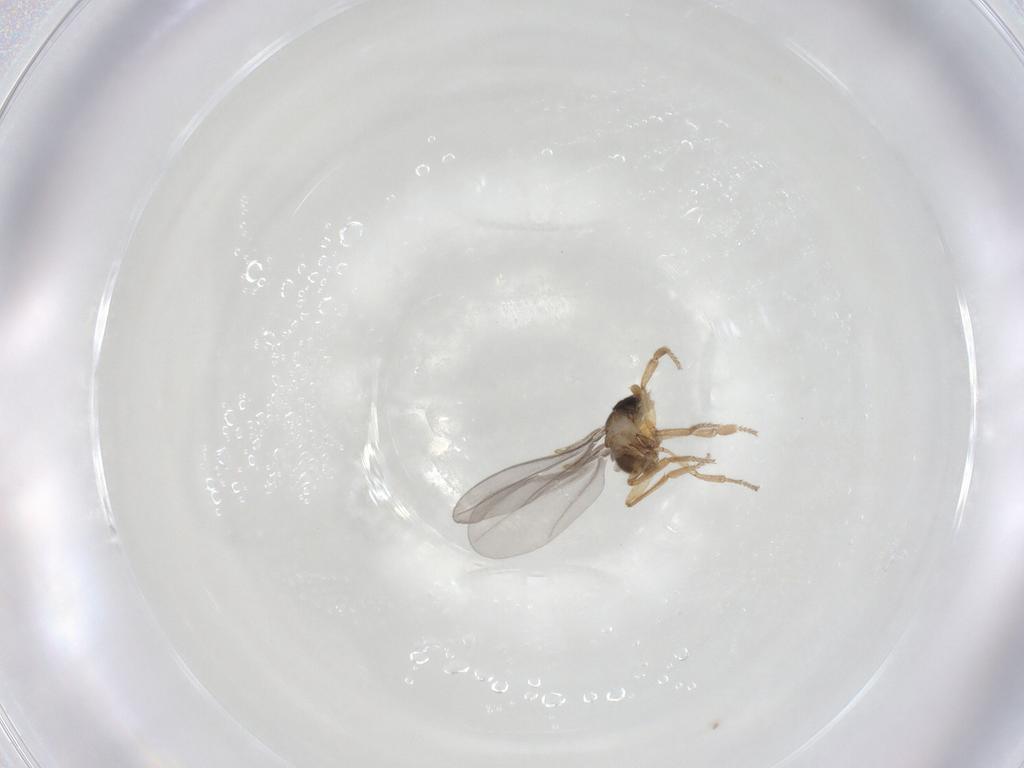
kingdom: Animalia
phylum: Arthropoda
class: Insecta
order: Diptera
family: Phoridae
